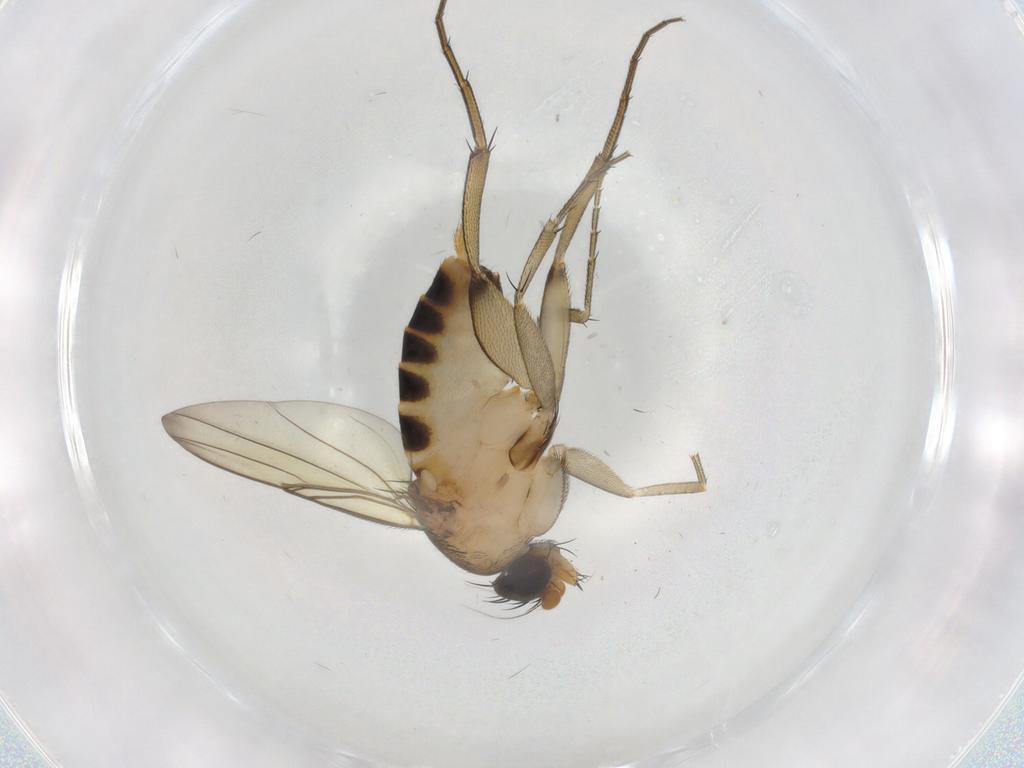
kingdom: Animalia
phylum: Arthropoda
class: Insecta
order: Diptera
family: Phoridae
